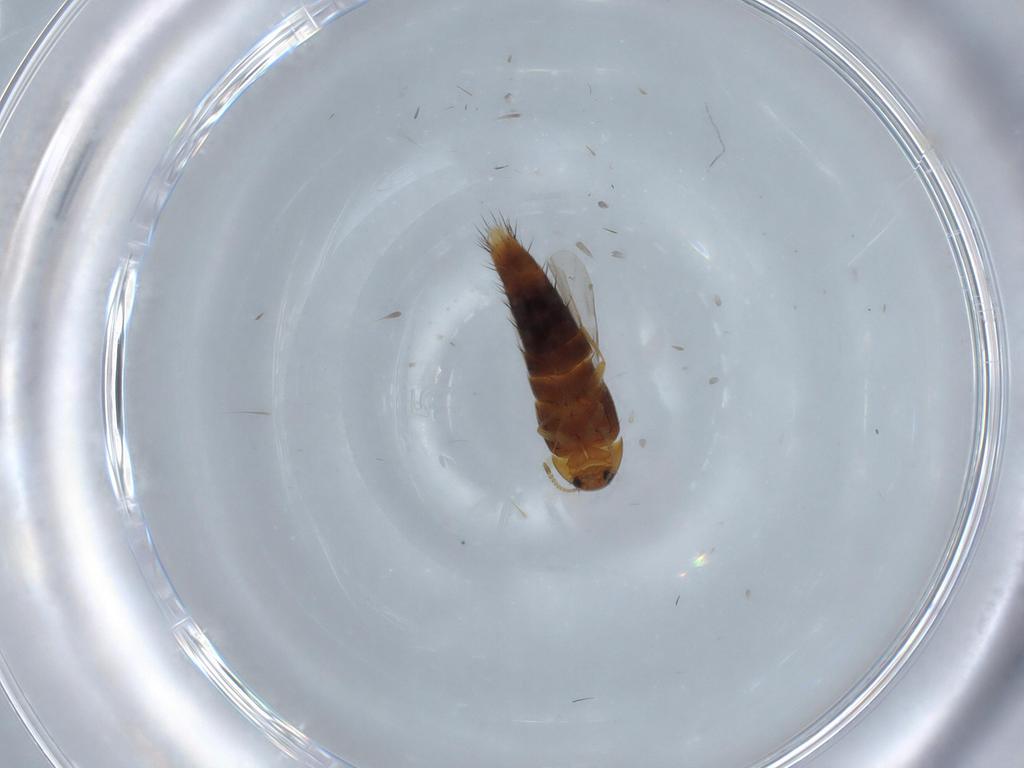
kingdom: Animalia
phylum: Arthropoda
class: Insecta
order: Coleoptera
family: Staphylinidae
